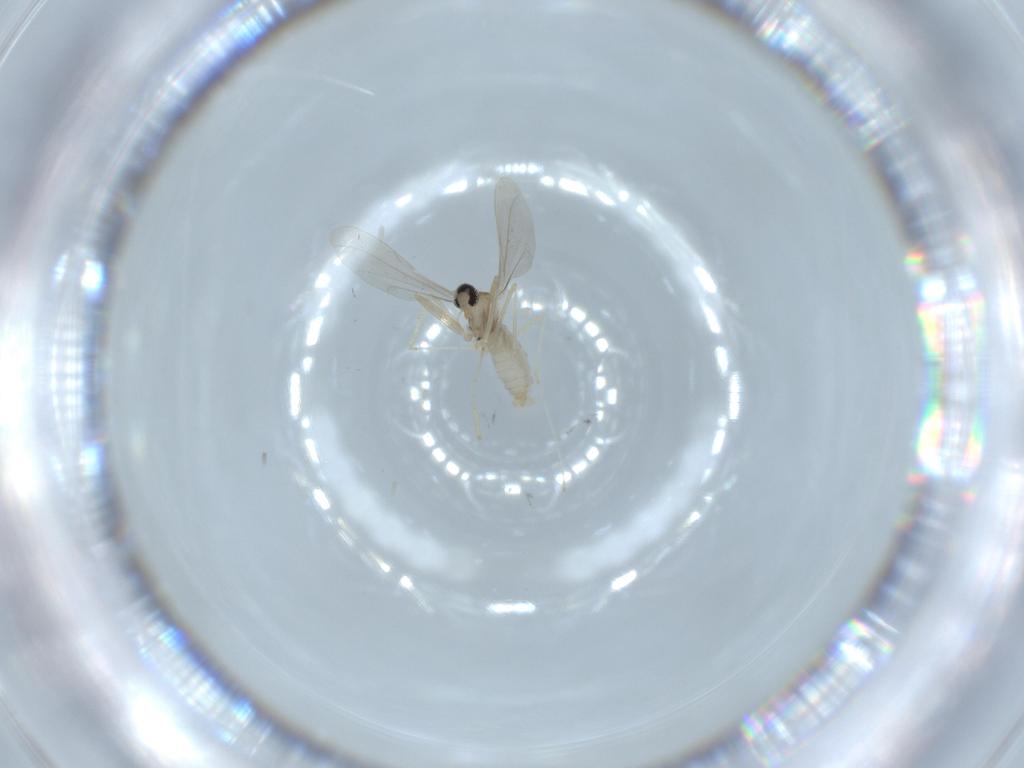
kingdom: Animalia
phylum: Arthropoda
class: Insecta
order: Diptera
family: Cecidomyiidae
